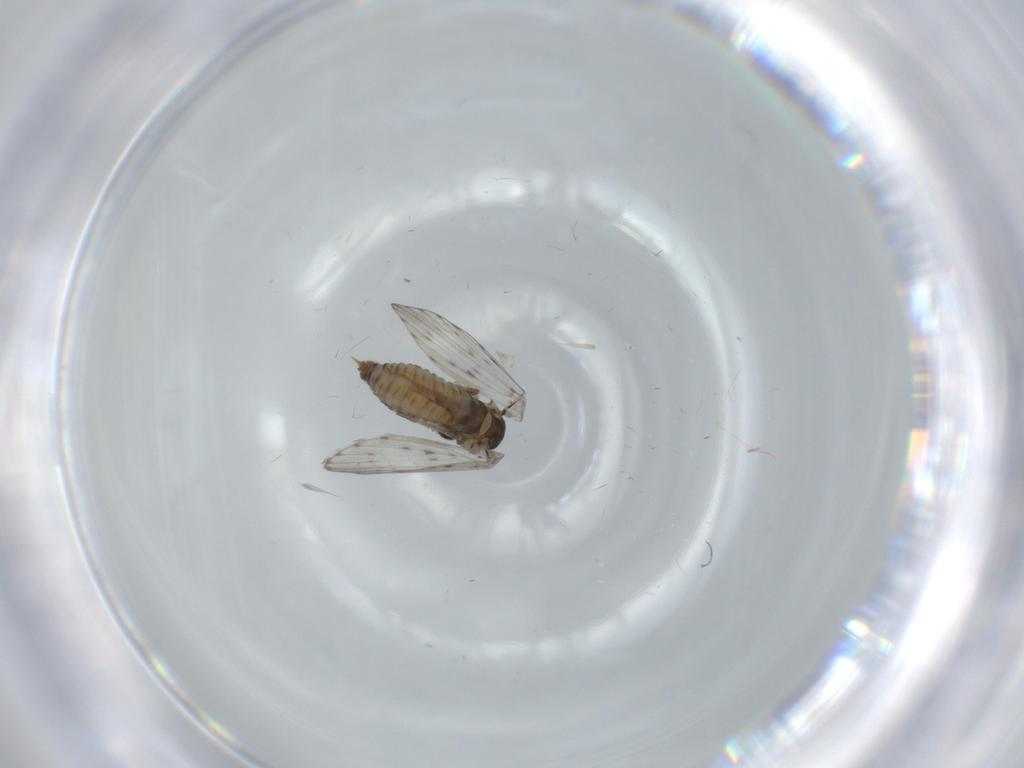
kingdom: Animalia
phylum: Arthropoda
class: Insecta
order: Diptera
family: Psychodidae
